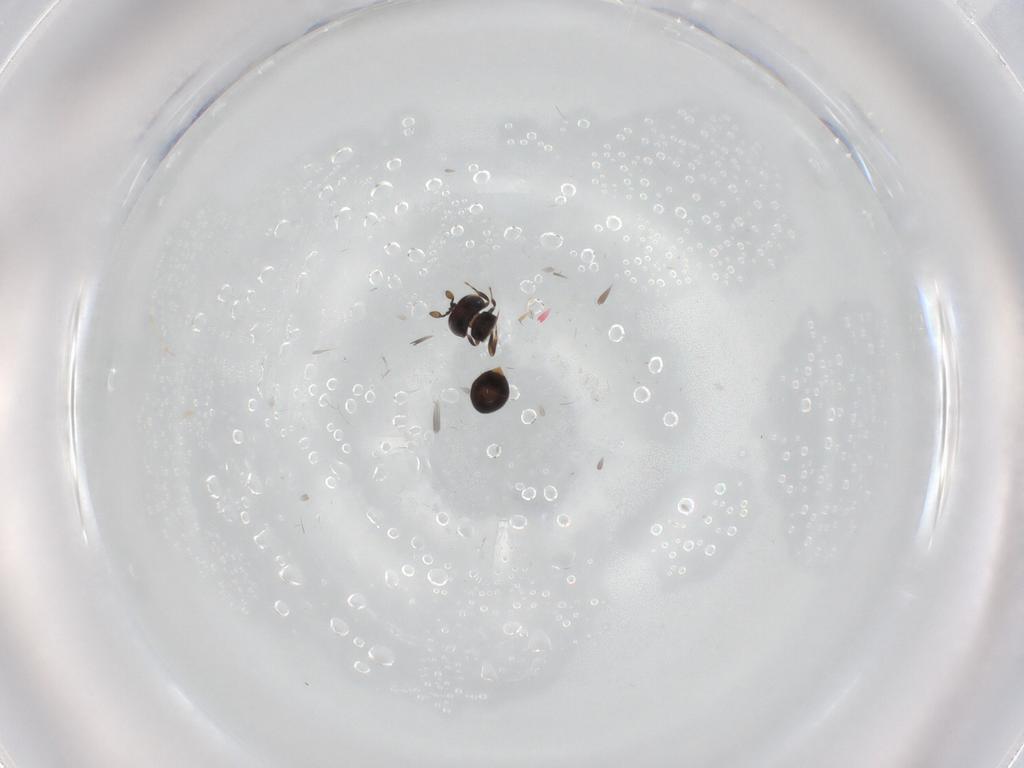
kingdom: Animalia
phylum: Arthropoda
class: Insecta
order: Hymenoptera
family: Scelionidae
